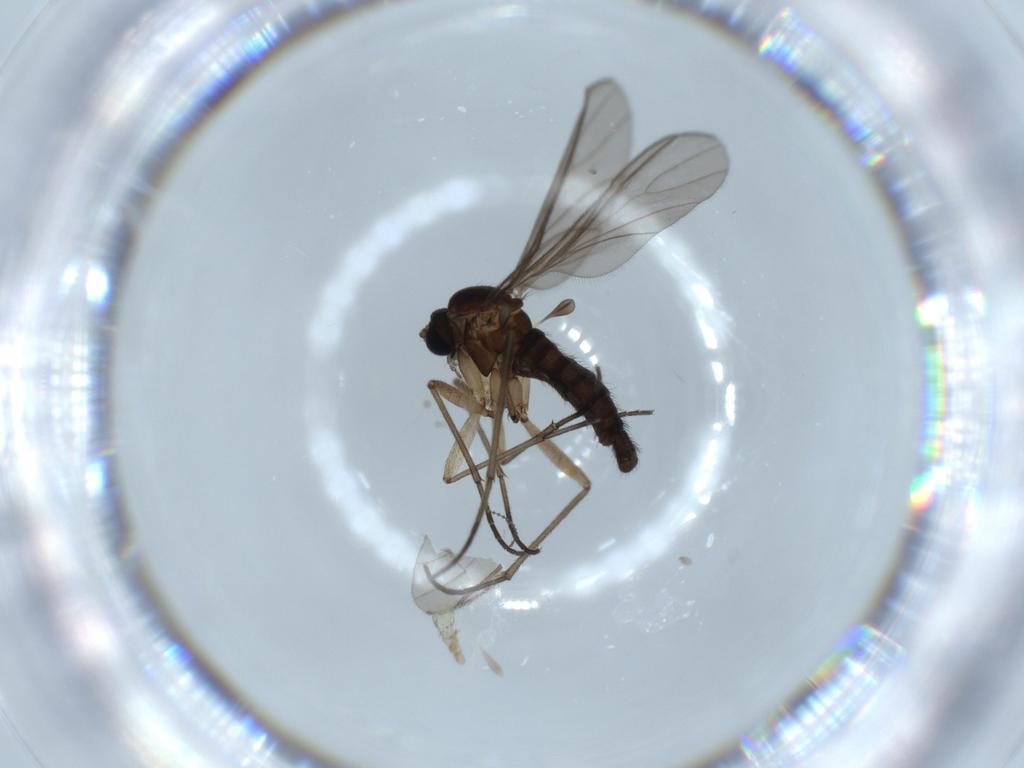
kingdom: Animalia
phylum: Arthropoda
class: Insecta
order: Diptera
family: Sciaridae
